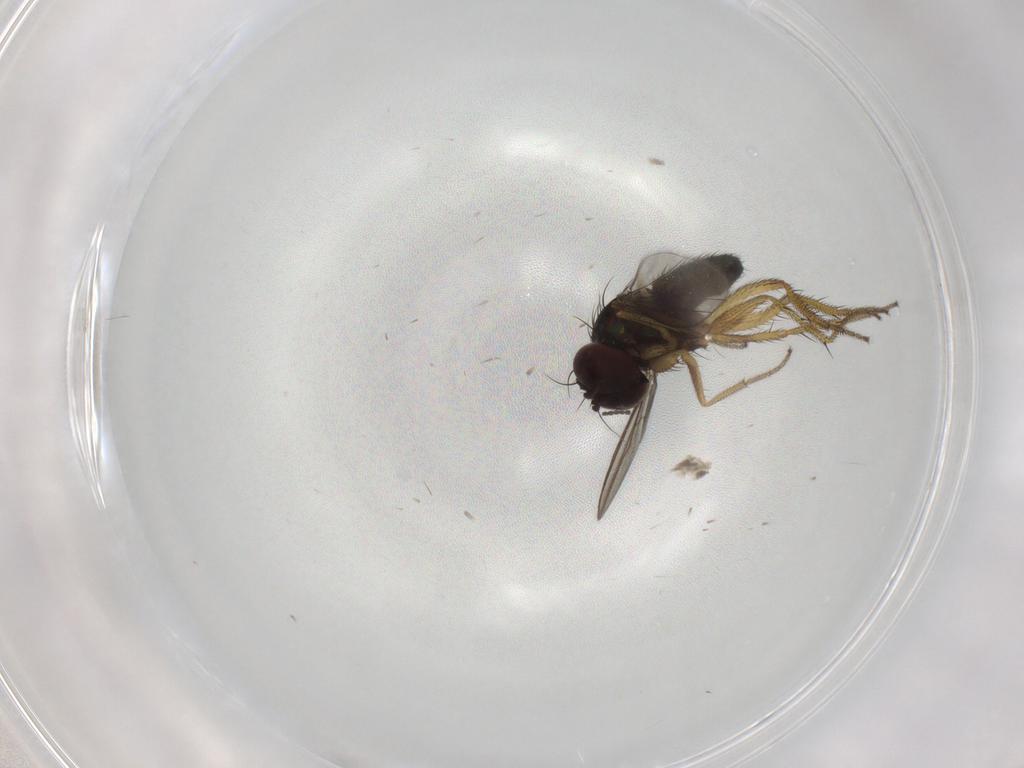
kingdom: Animalia
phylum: Arthropoda
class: Insecta
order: Diptera
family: Sciaridae
